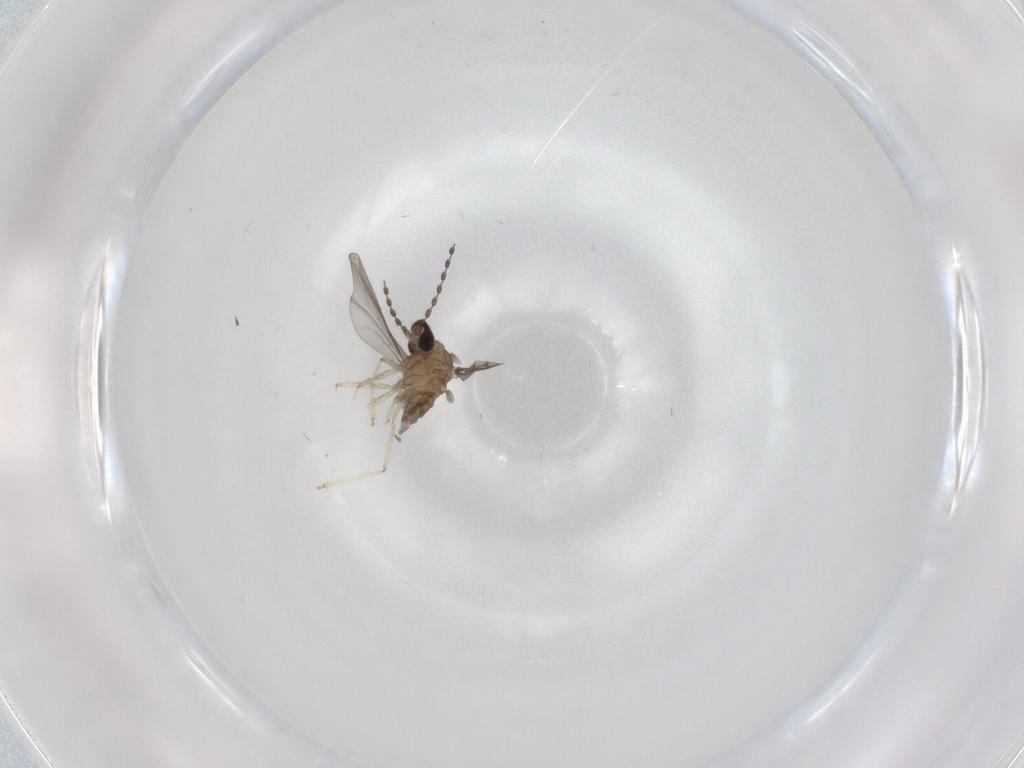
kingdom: Animalia
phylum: Arthropoda
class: Insecta
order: Diptera
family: Cecidomyiidae
